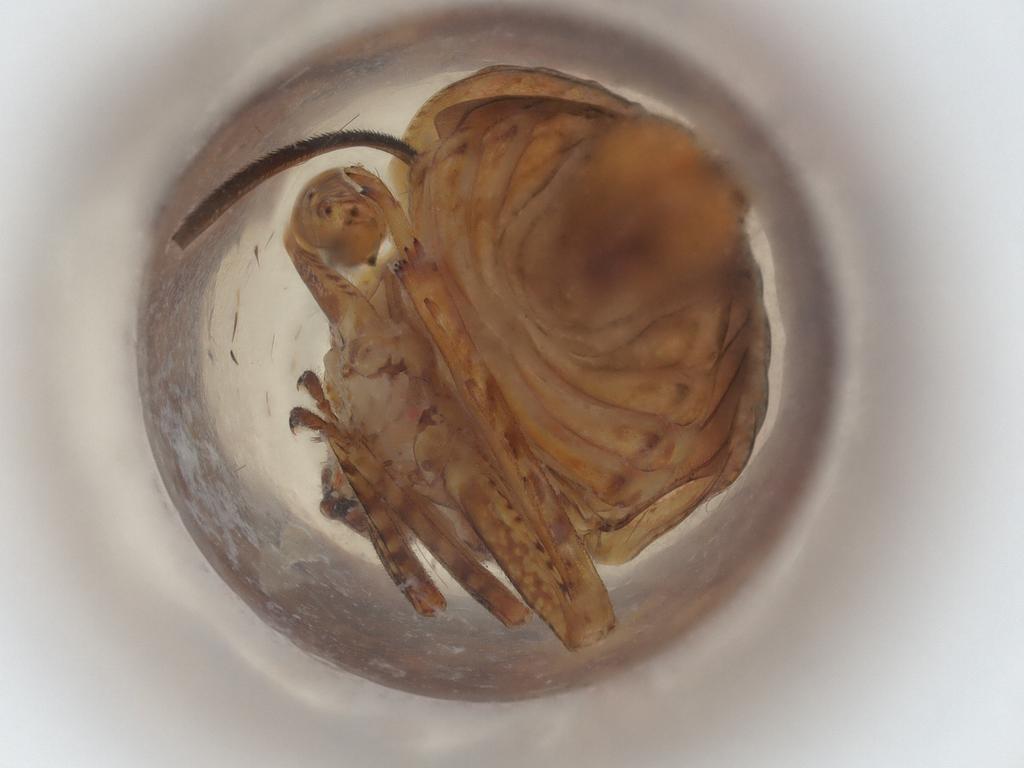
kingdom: Animalia
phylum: Arthropoda
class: Insecta
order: Hymenoptera
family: Ichneumonidae
